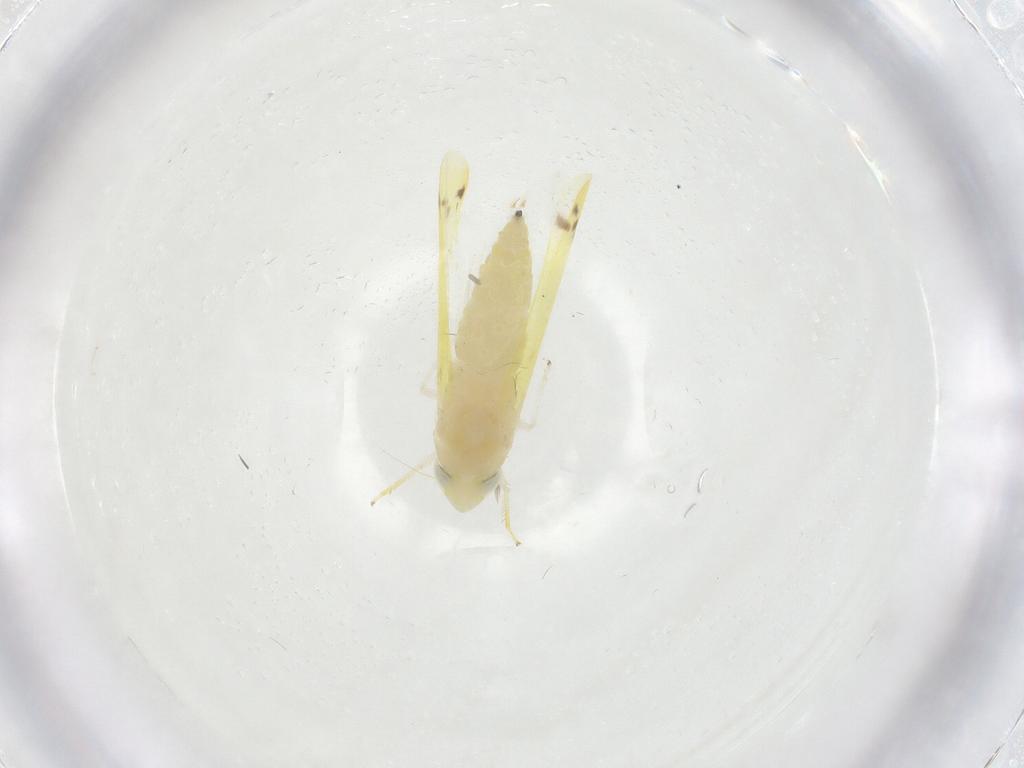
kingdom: Animalia
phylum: Arthropoda
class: Insecta
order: Hemiptera
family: Cicadellidae
